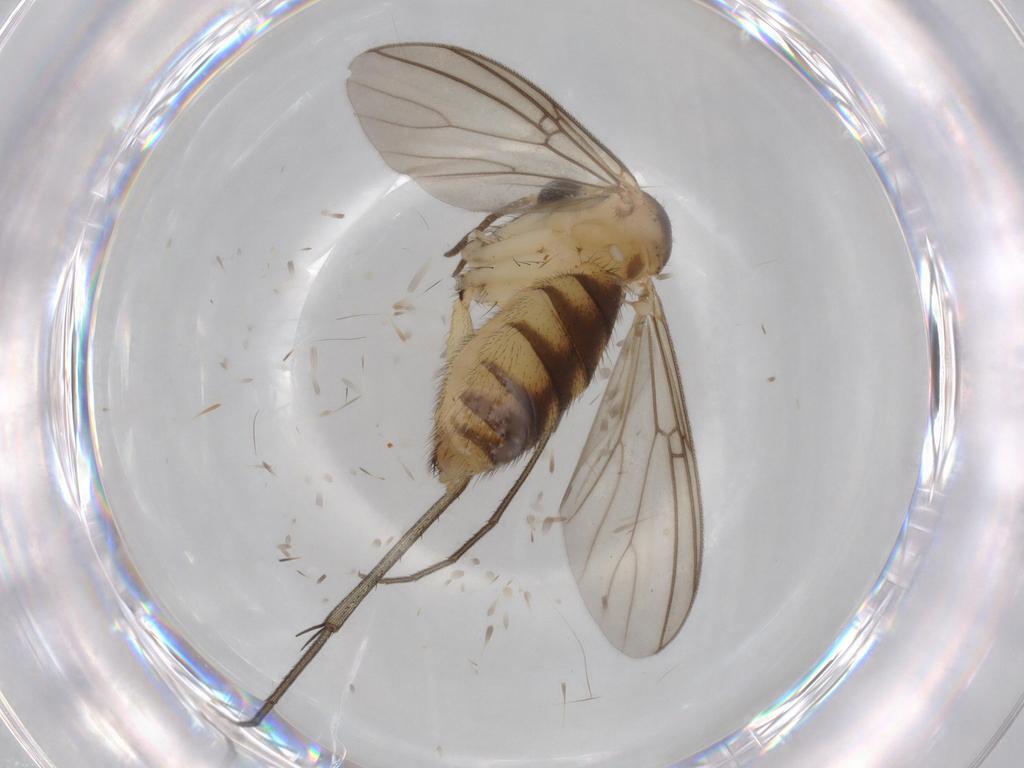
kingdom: Animalia
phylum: Arthropoda
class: Insecta
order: Diptera
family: Mycetophilidae
